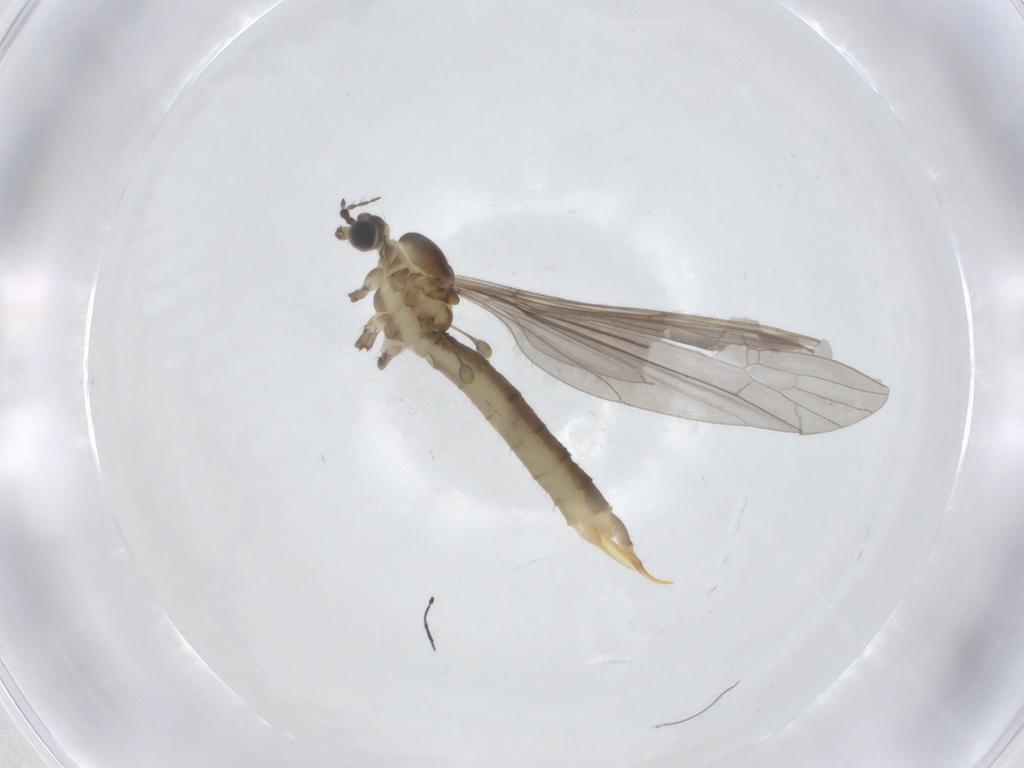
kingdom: Animalia
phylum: Arthropoda
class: Insecta
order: Diptera
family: Limoniidae
